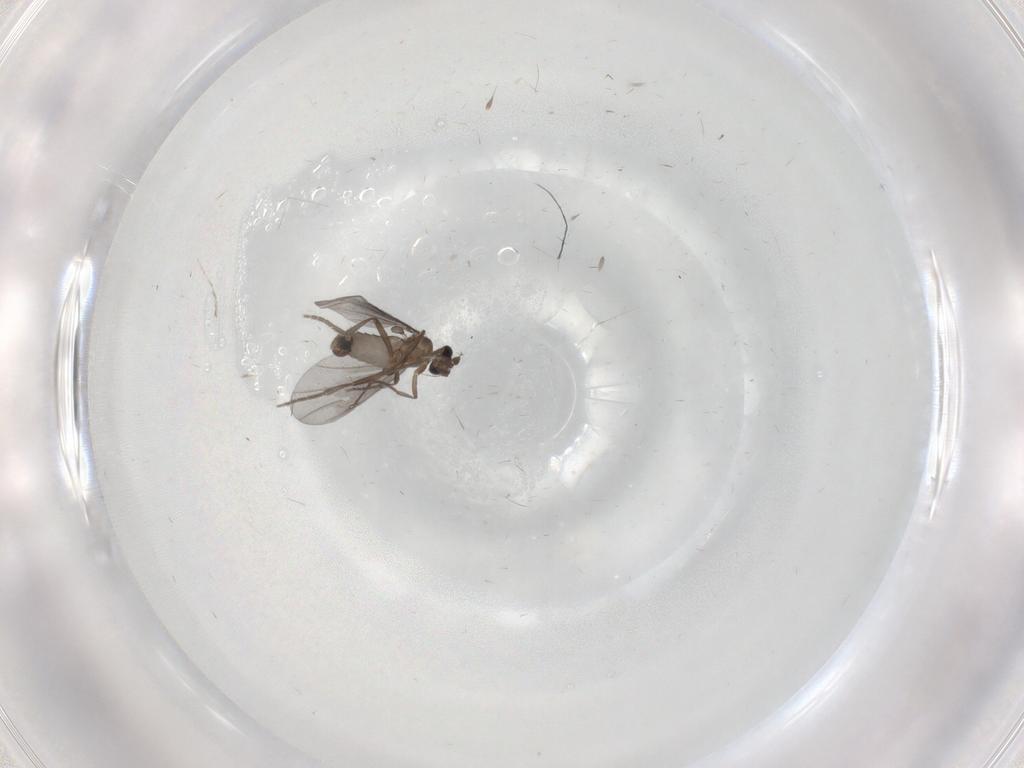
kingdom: Animalia
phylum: Arthropoda
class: Insecta
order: Diptera
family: Phoridae
